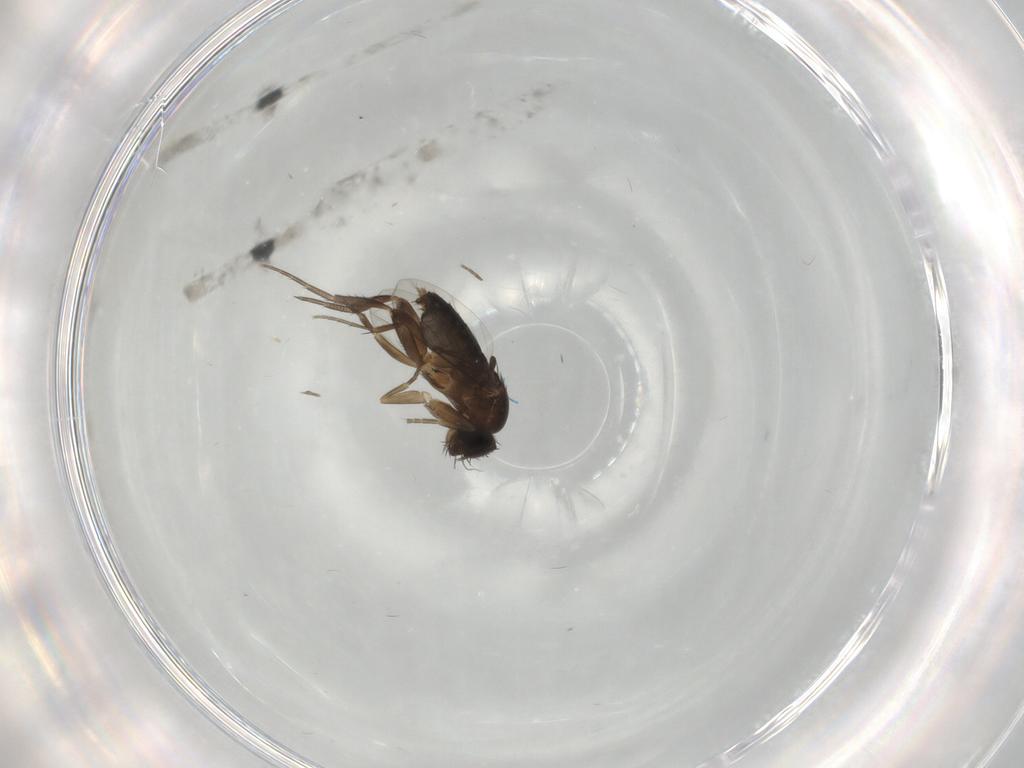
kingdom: Animalia
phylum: Arthropoda
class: Insecta
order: Diptera
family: Phoridae
